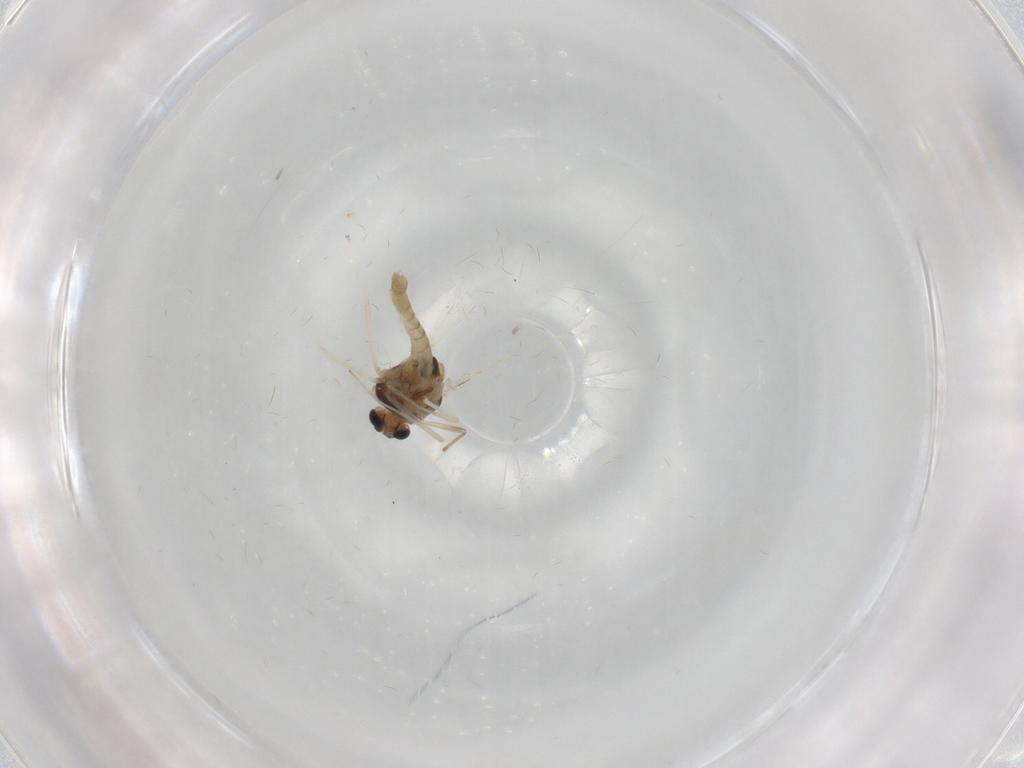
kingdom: Animalia
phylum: Arthropoda
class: Insecta
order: Diptera
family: Chironomidae
